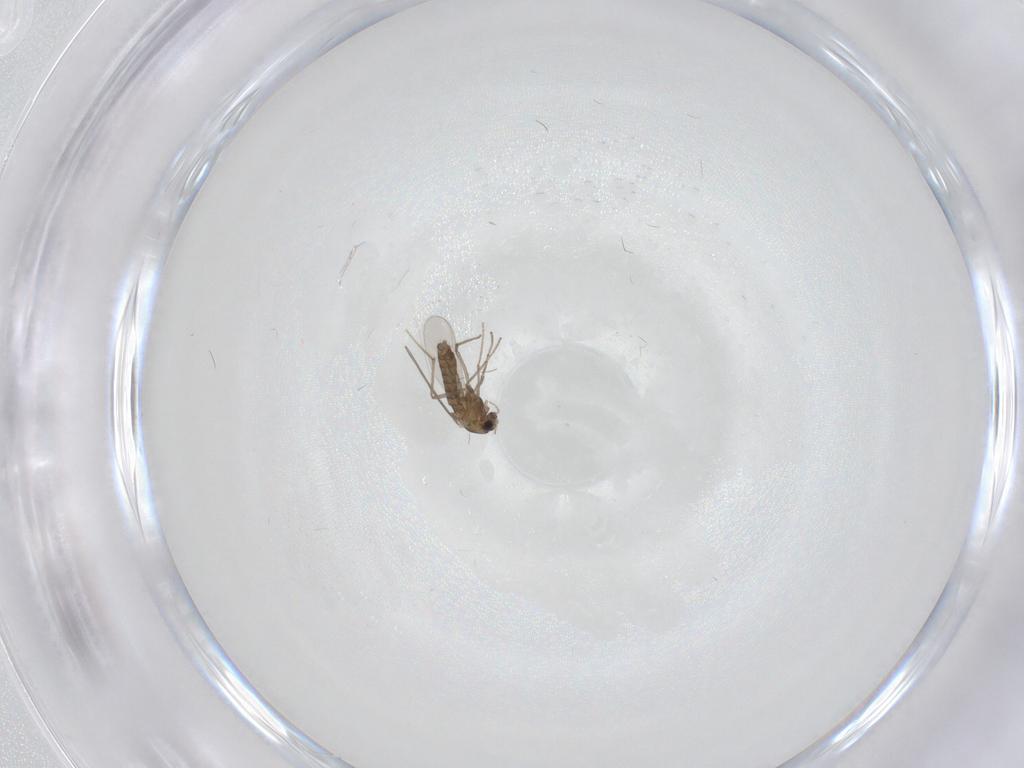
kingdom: Animalia
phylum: Arthropoda
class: Insecta
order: Diptera
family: Chironomidae
